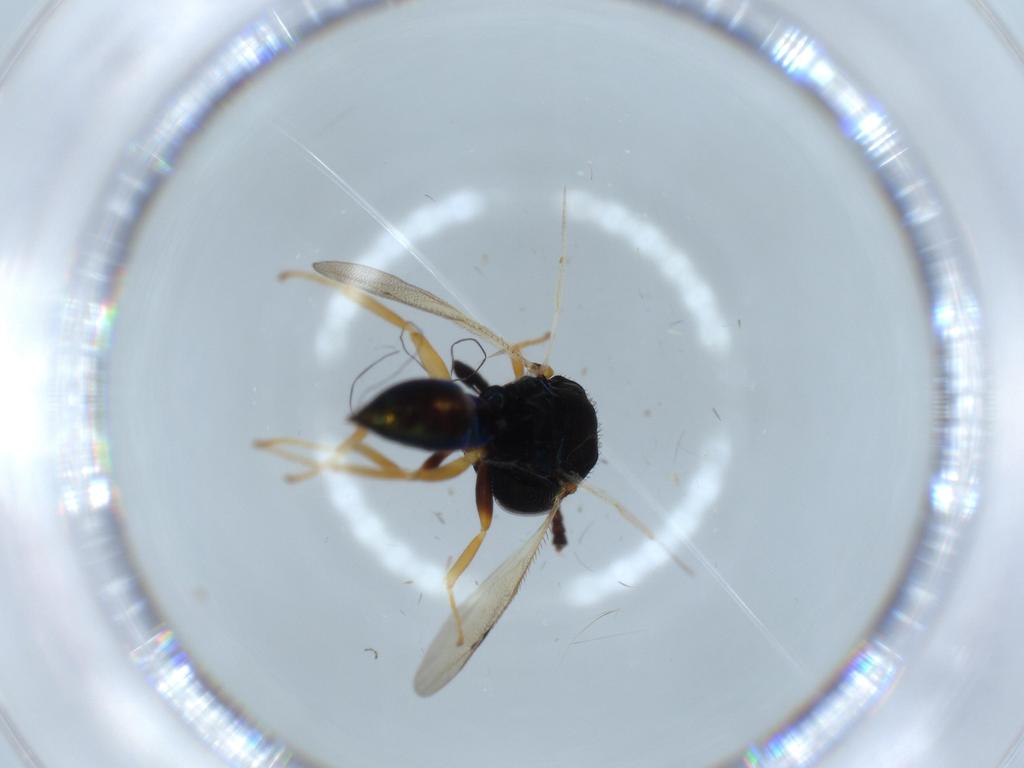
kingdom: Animalia
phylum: Arthropoda
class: Insecta
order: Hymenoptera
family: Pteromalidae
